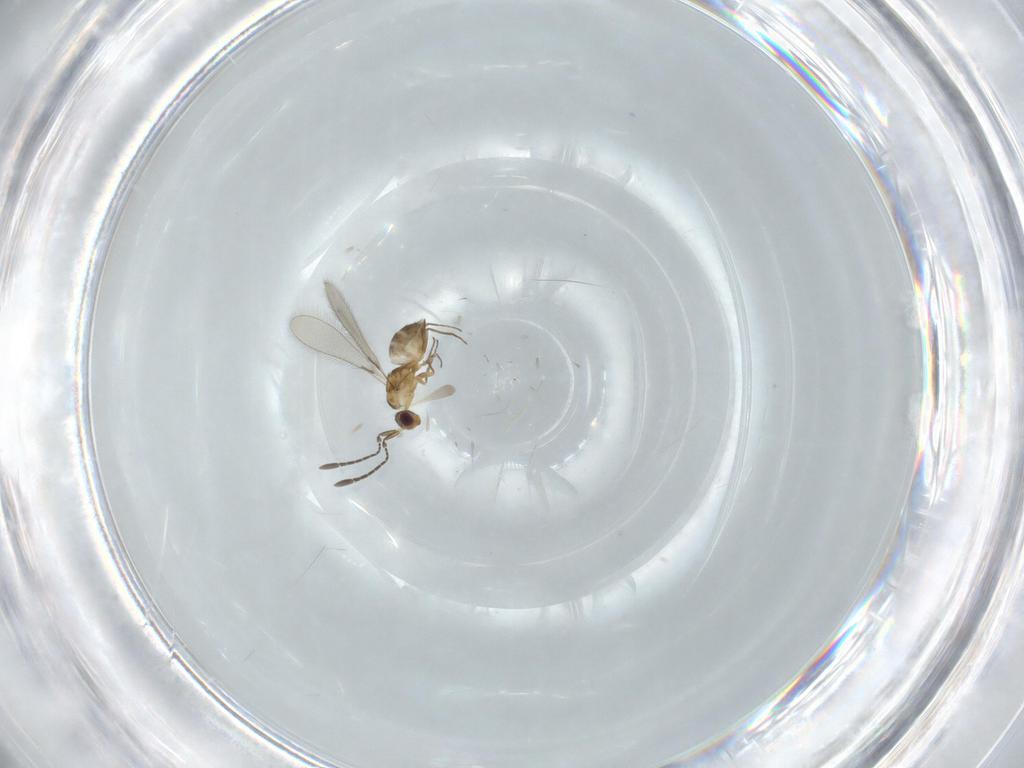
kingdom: Animalia
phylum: Arthropoda
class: Insecta
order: Hymenoptera
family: Mymaridae
